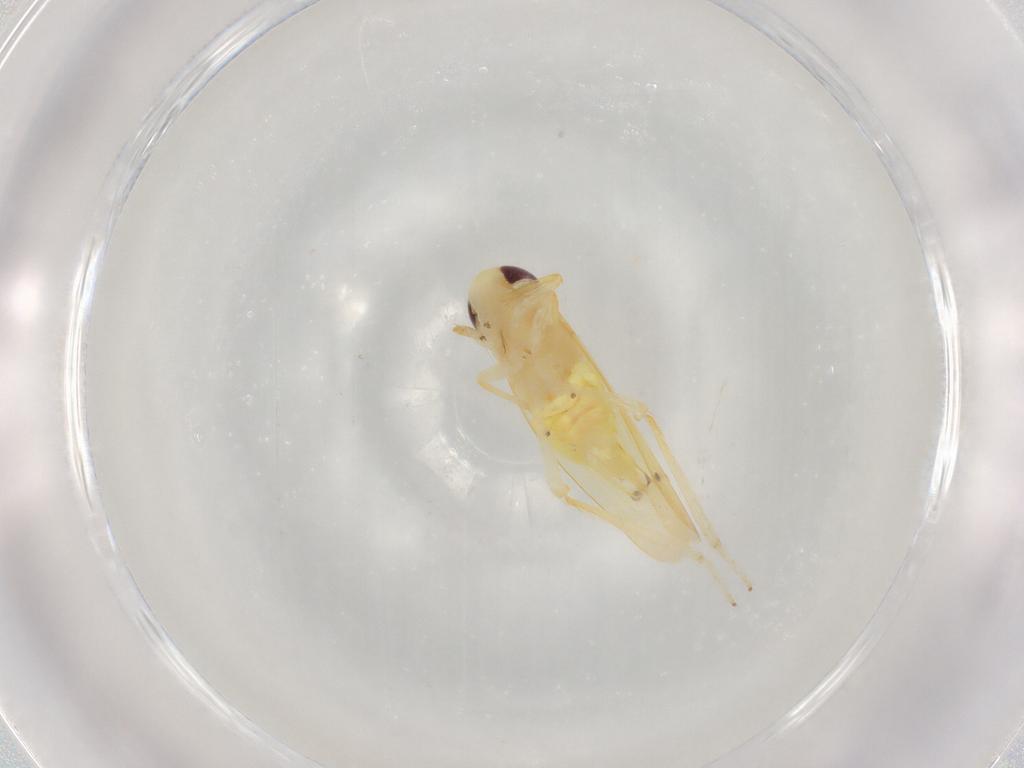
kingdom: Animalia
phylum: Arthropoda
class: Insecta
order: Hemiptera
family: Cicadellidae
